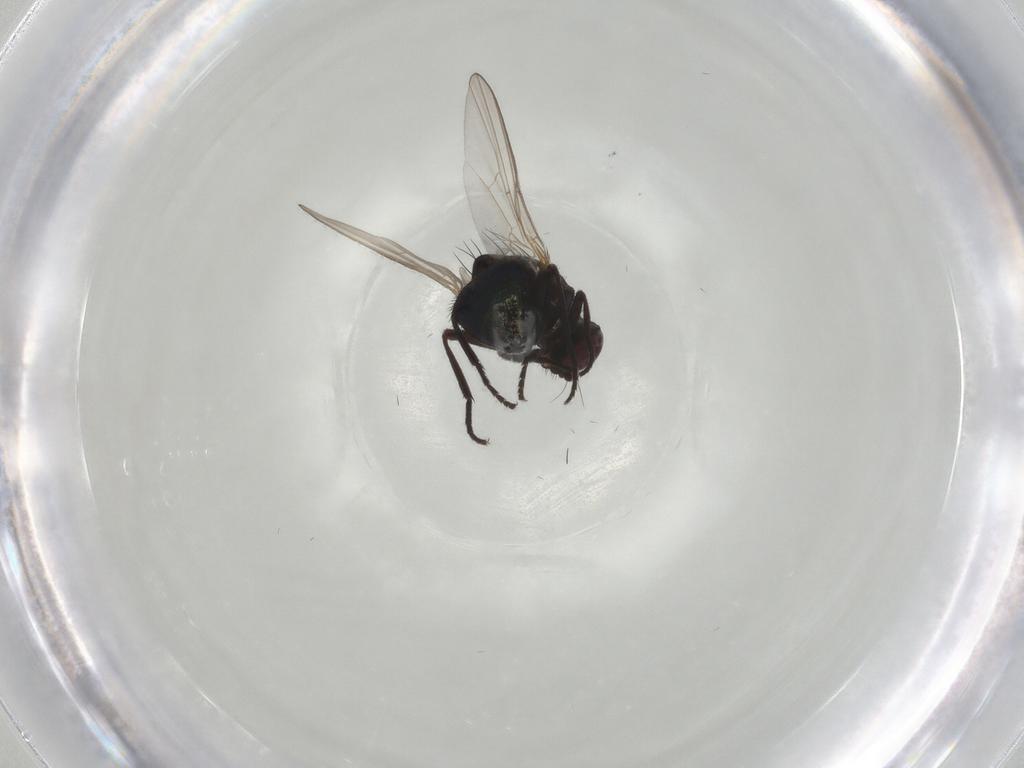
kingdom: Animalia
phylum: Arthropoda
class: Insecta
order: Diptera
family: Agromyzidae
